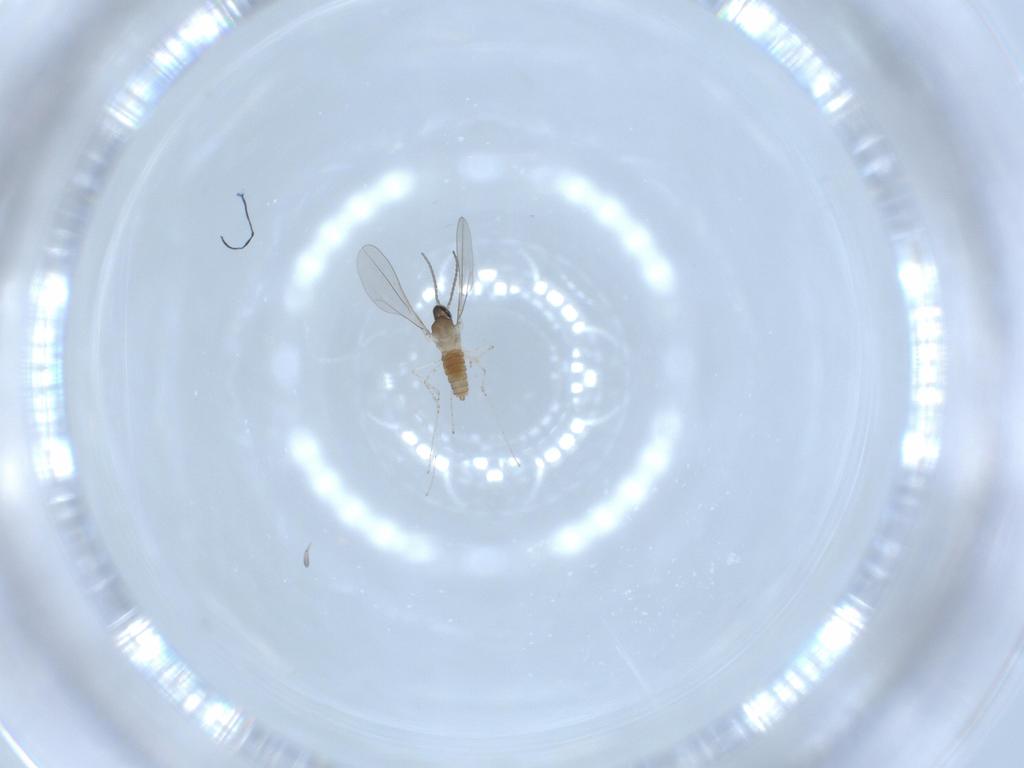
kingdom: Animalia
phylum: Arthropoda
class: Insecta
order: Diptera
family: Cecidomyiidae
